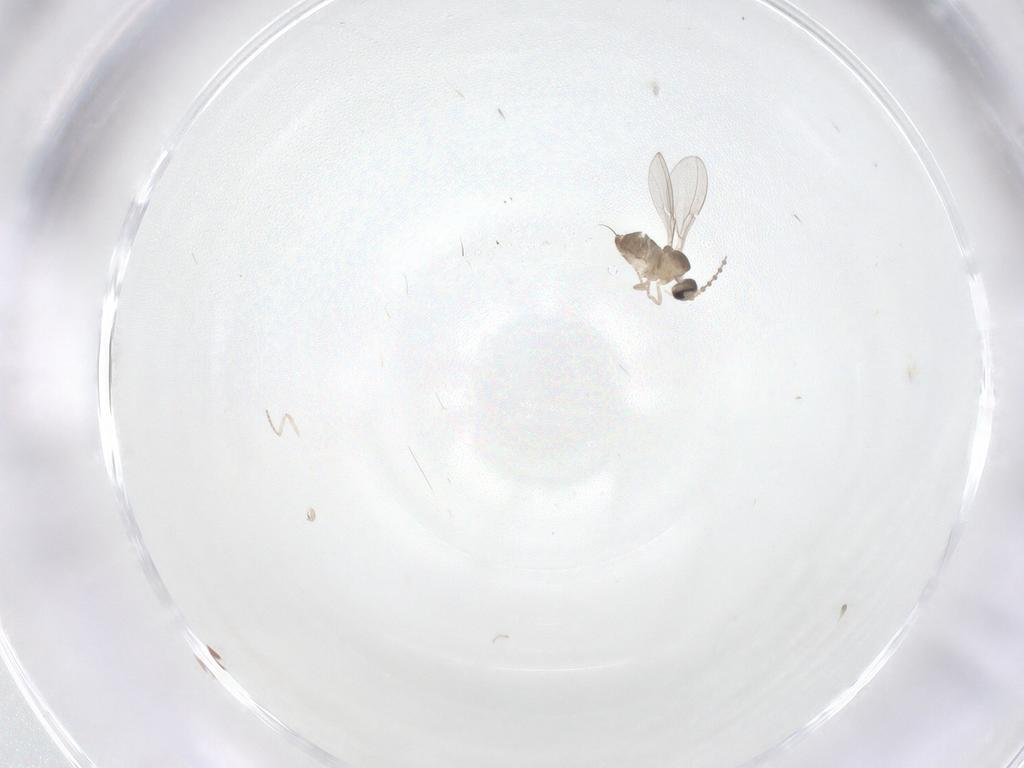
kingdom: Animalia
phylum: Arthropoda
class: Insecta
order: Diptera
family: Cecidomyiidae
